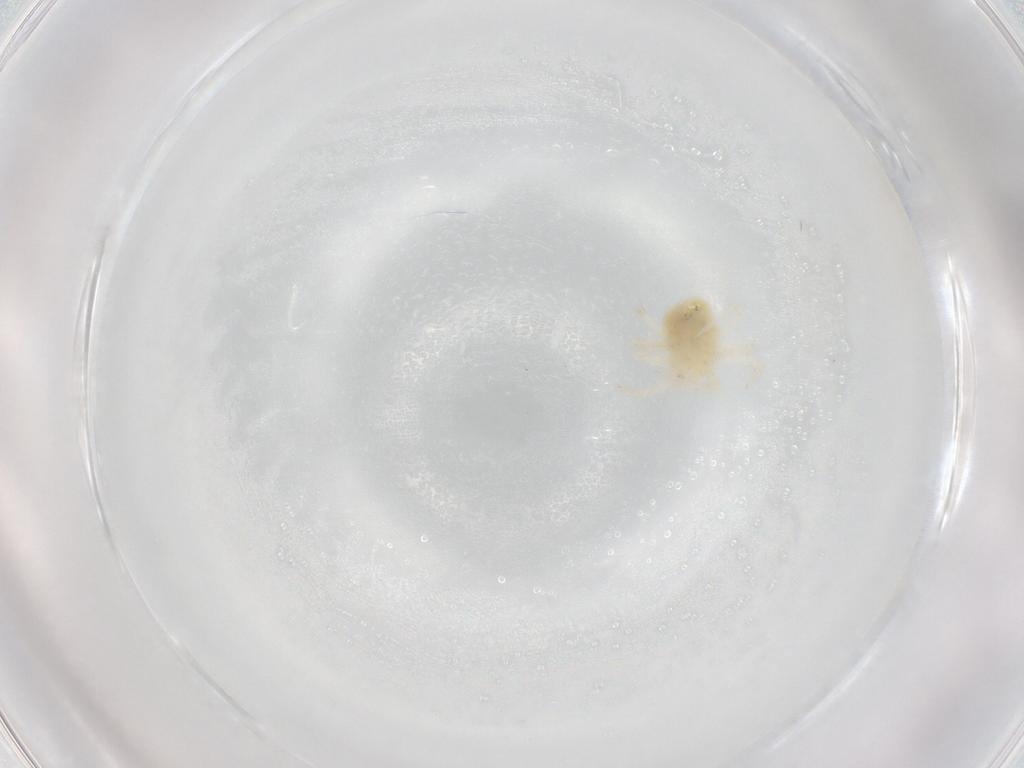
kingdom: Animalia
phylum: Arthropoda
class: Arachnida
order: Trombidiformes
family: Anystidae
